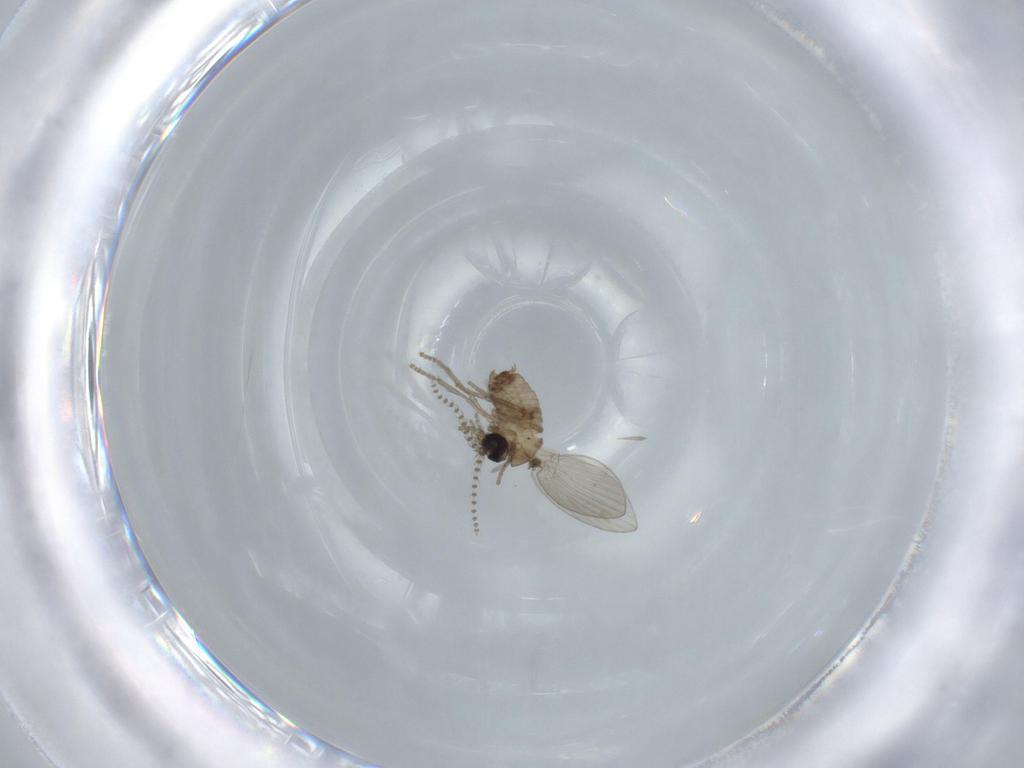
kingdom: Animalia
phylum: Arthropoda
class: Insecta
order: Diptera
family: Psychodidae
